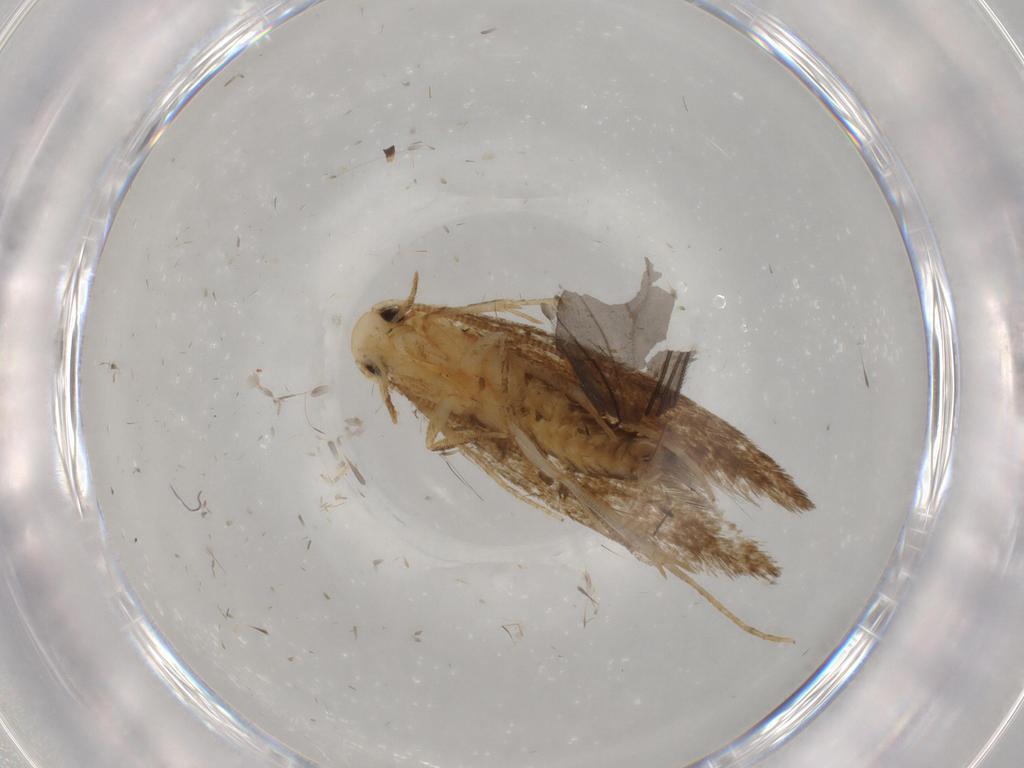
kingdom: Animalia
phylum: Arthropoda
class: Insecta
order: Lepidoptera
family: Tineidae
